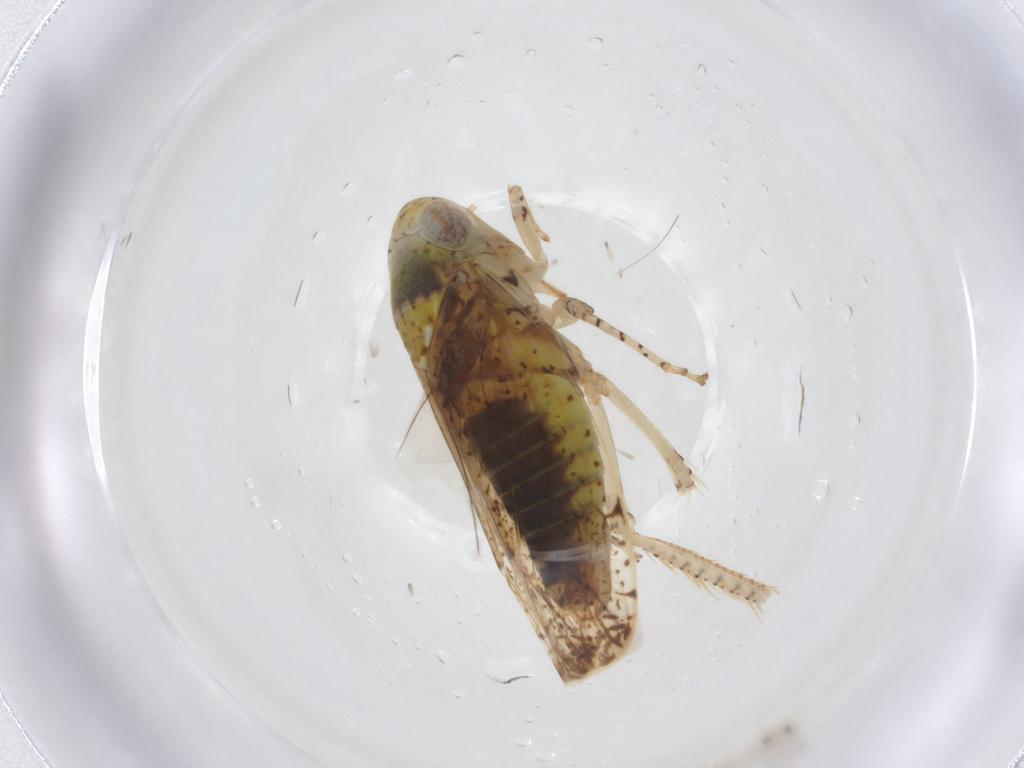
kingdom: Animalia
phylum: Arthropoda
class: Insecta
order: Hemiptera
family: Cicadellidae
